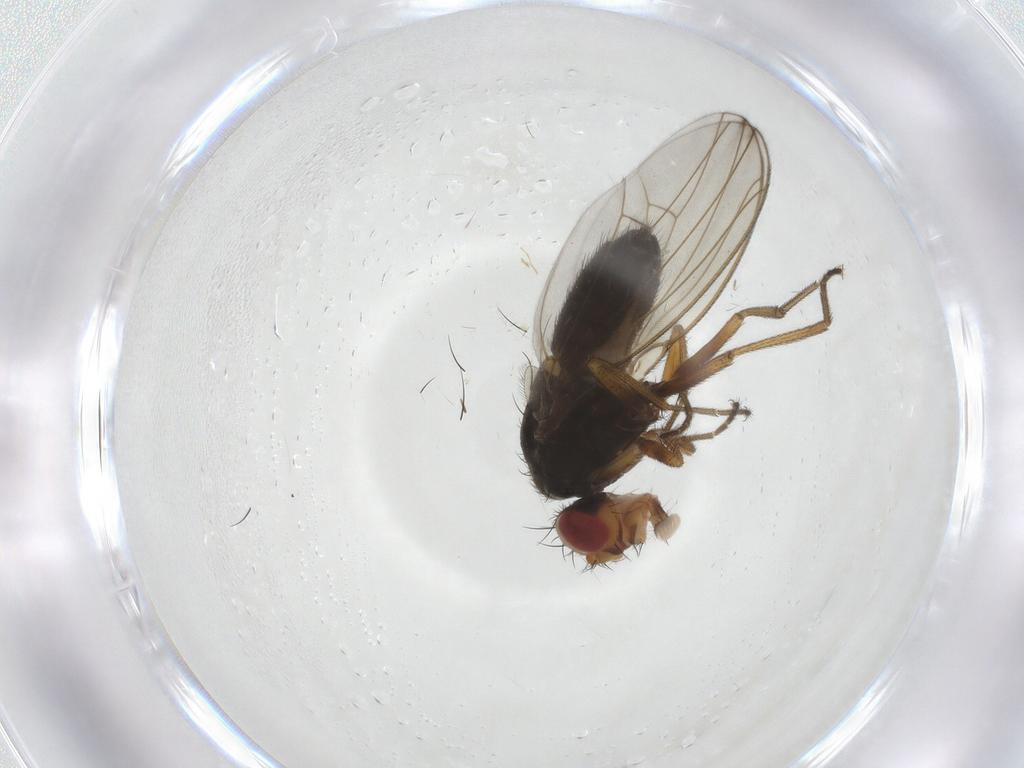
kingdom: Animalia
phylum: Arthropoda
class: Insecta
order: Diptera
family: Drosophilidae
